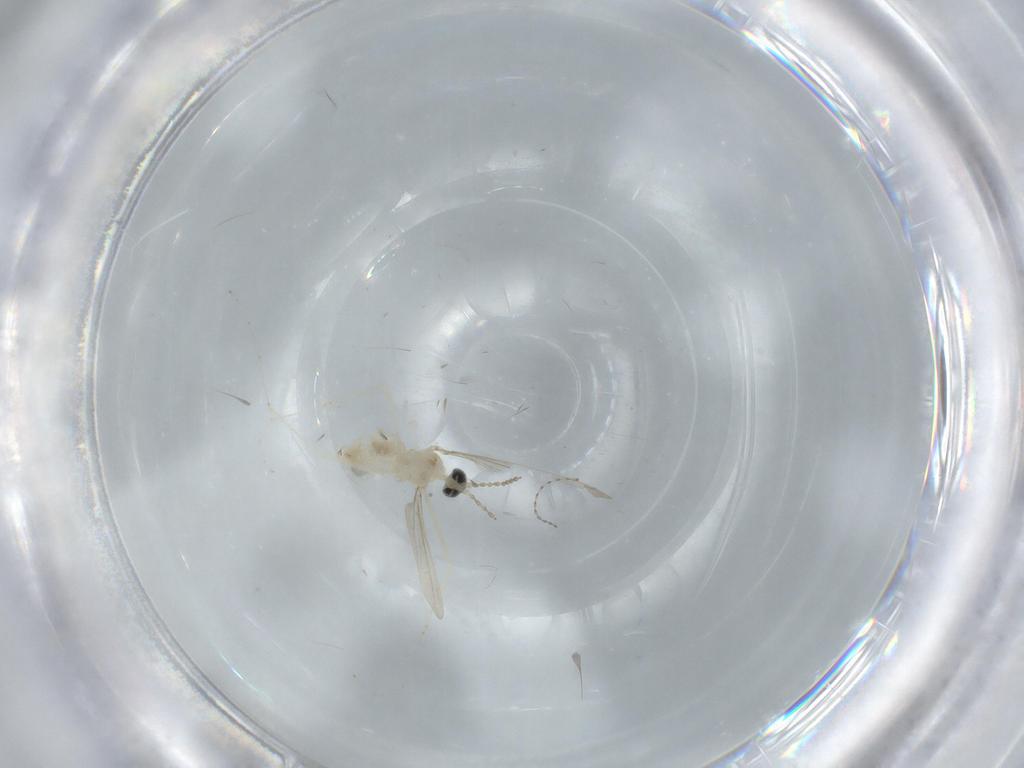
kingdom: Animalia
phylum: Arthropoda
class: Insecta
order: Diptera
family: Cecidomyiidae
